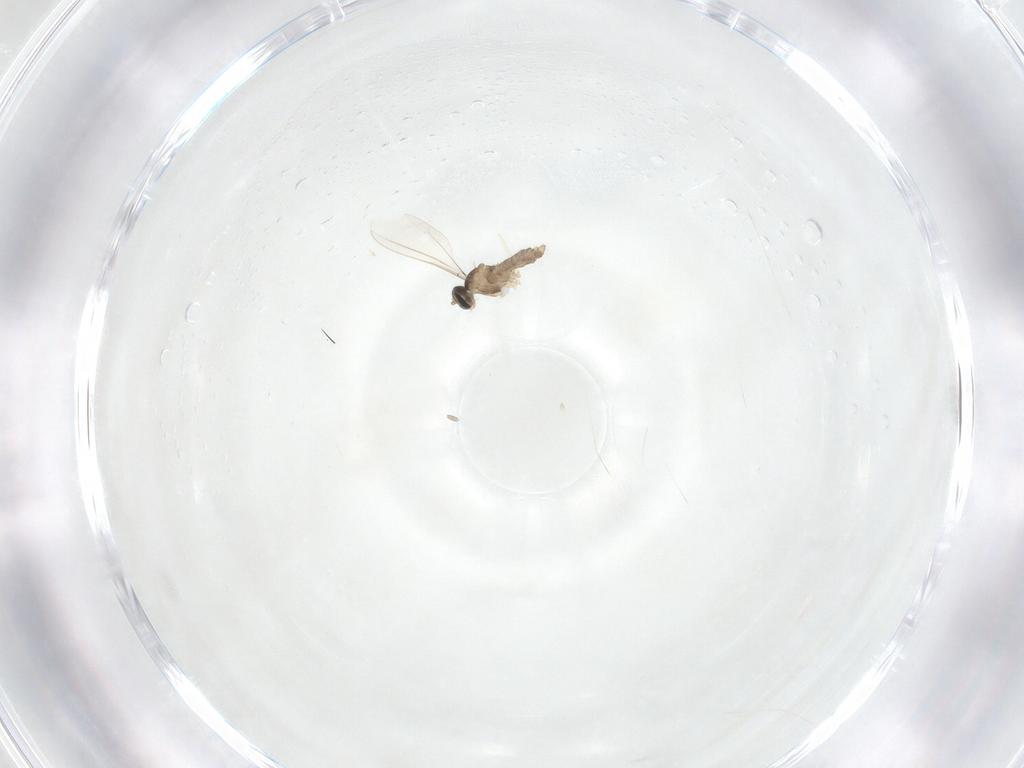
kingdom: Animalia
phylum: Arthropoda
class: Insecta
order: Diptera
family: Cecidomyiidae
